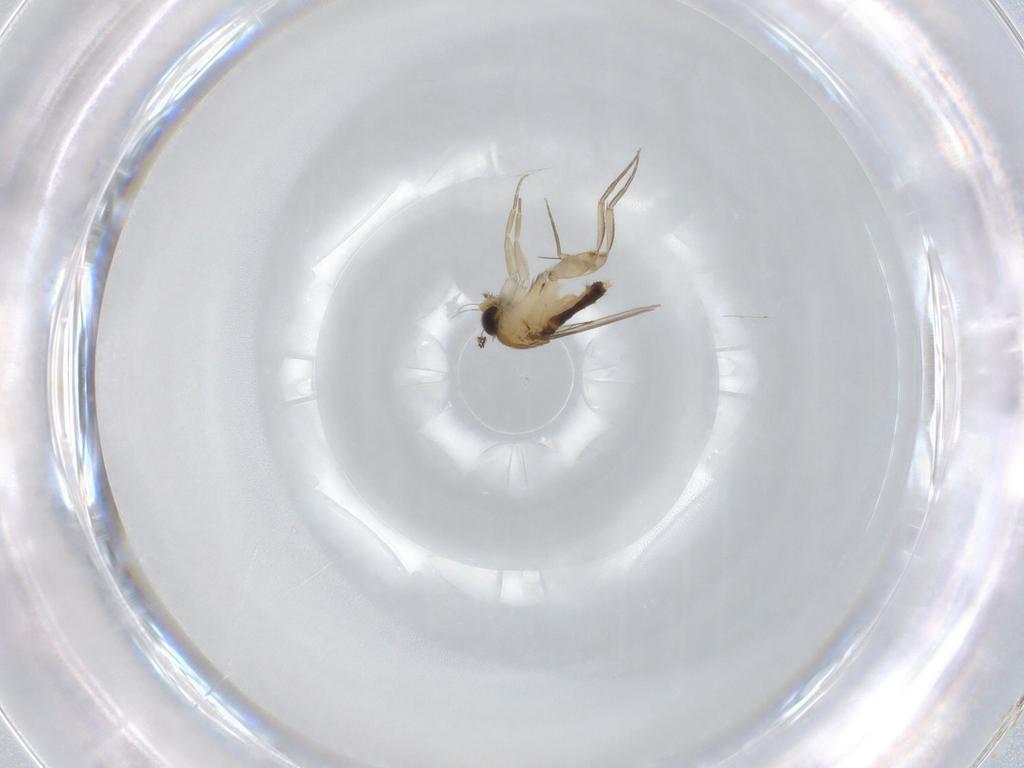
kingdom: Animalia
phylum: Arthropoda
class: Insecta
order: Diptera
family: Phoridae
